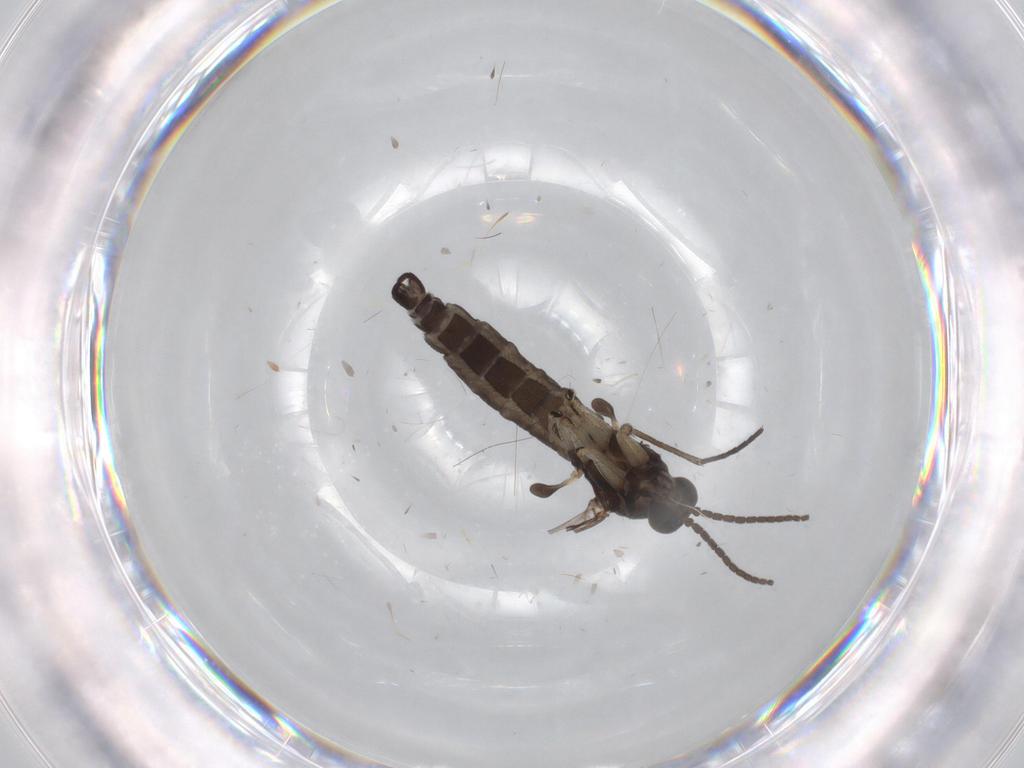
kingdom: Animalia
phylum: Arthropoda
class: Insecta
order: Diptera
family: Sciaridae
